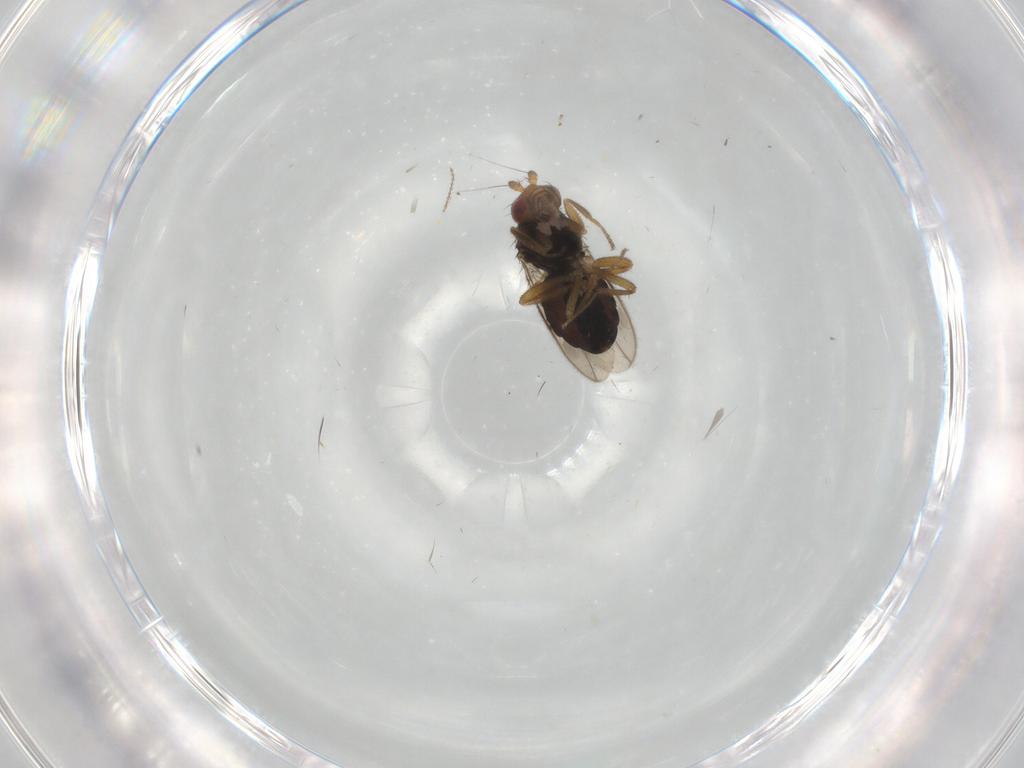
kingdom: Animalia
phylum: Arthropoda
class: Insecta
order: Diptera
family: Sphaeroceridae
